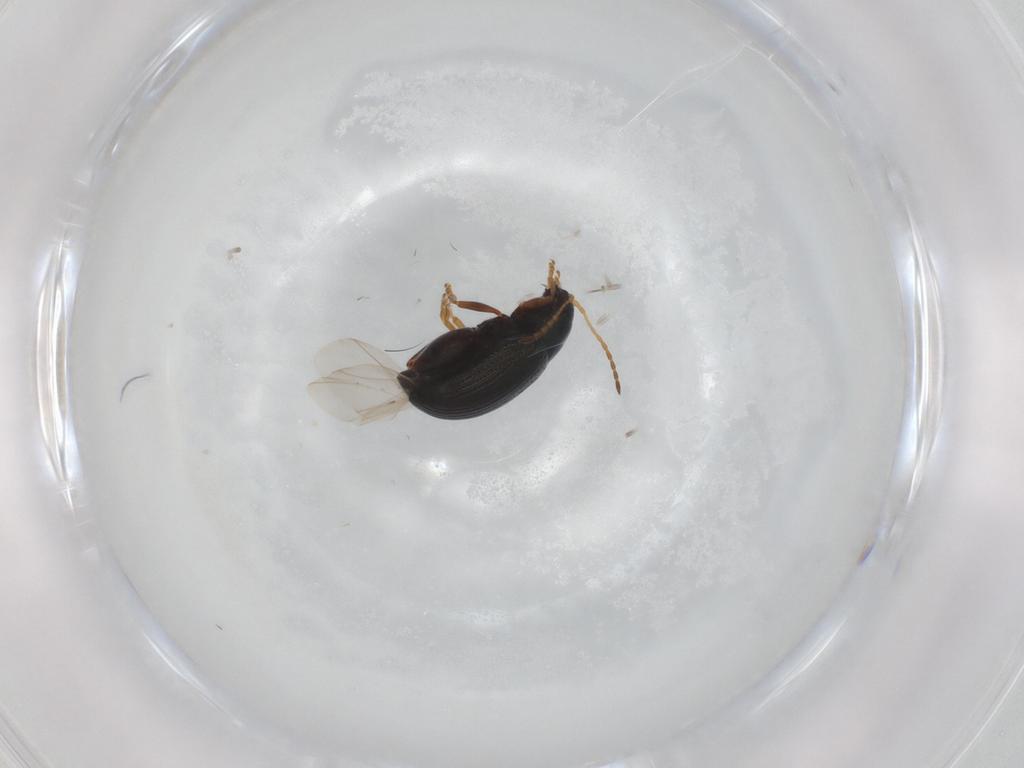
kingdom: Animalia
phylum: Arthropoda
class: Insecta
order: Coleoptera
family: Chrysomelidae
